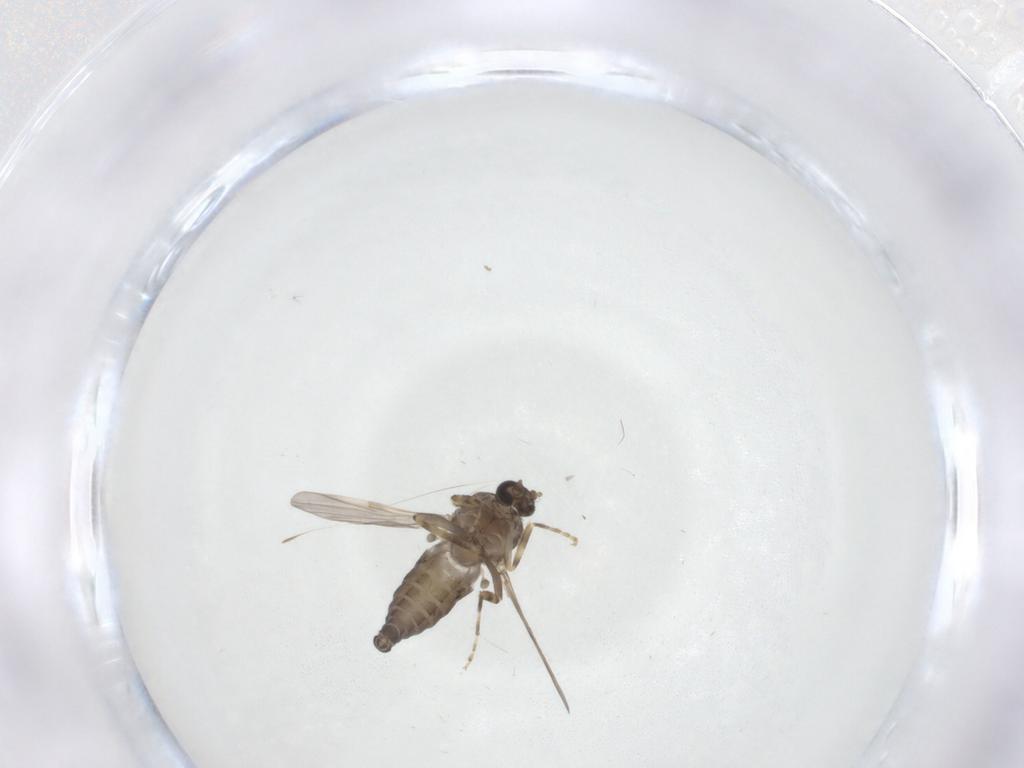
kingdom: Animalia
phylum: Arthropoda
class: Insecta
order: Diptera
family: Ceratopogonidae
